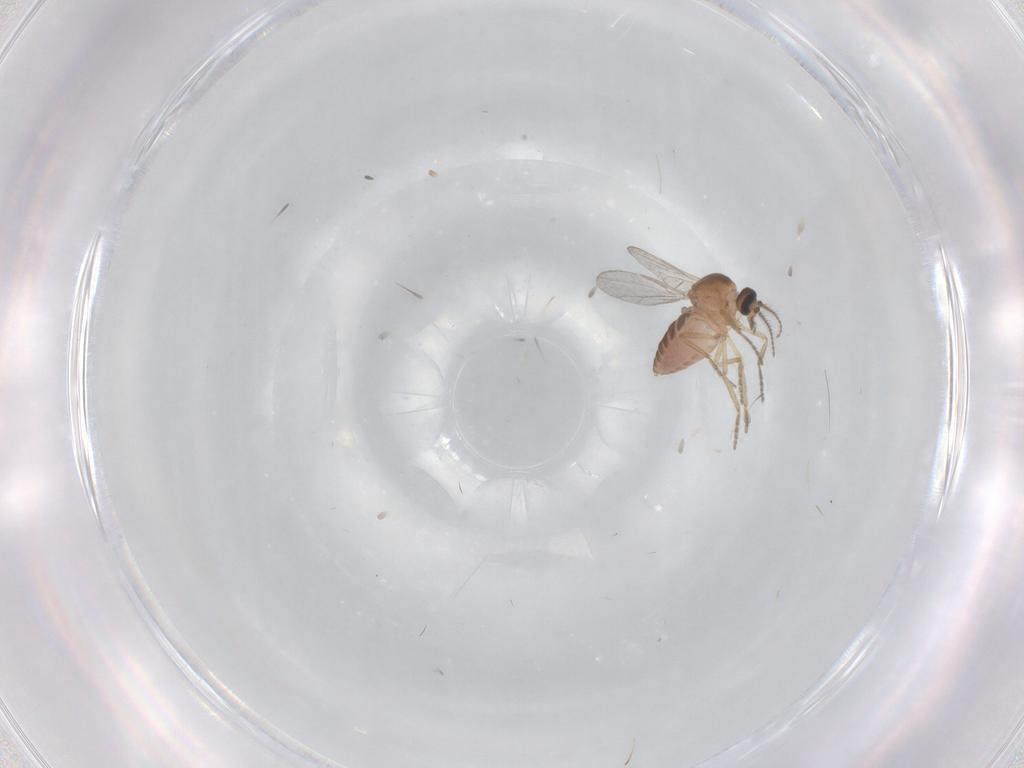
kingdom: Animalia
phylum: Arthropoda
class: Insecta
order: Diptera
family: Ceratopogonidae
